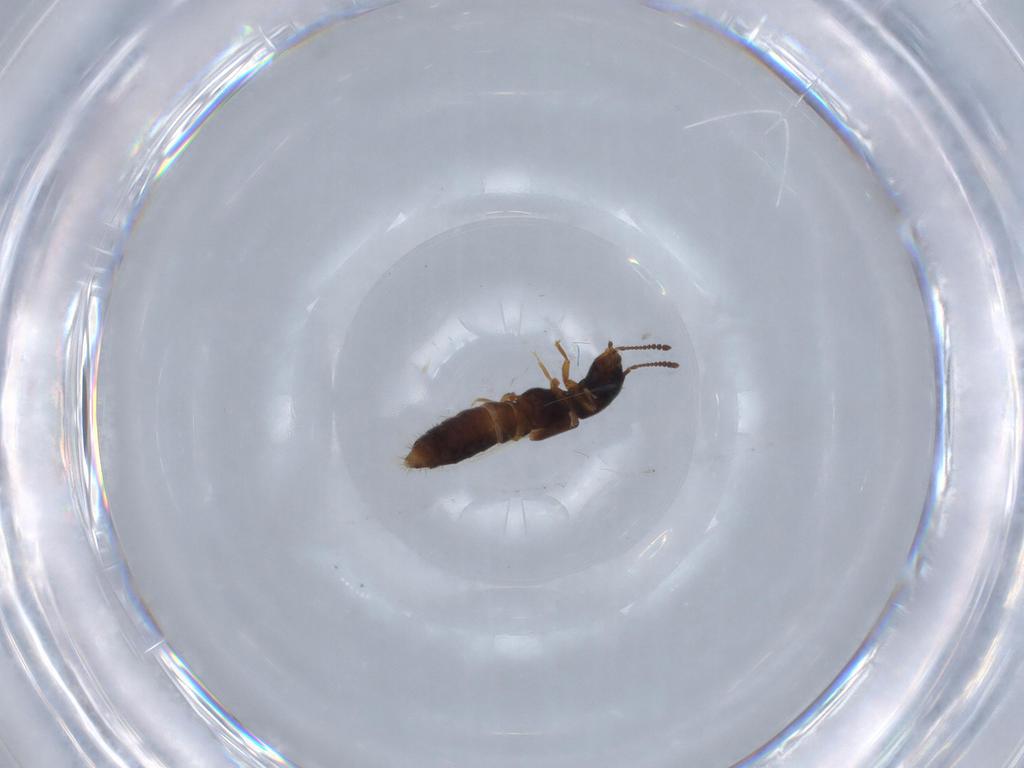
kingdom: Animalia
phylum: Arthropoda
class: Insecta
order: Coleoptera
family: Staphylinidae
